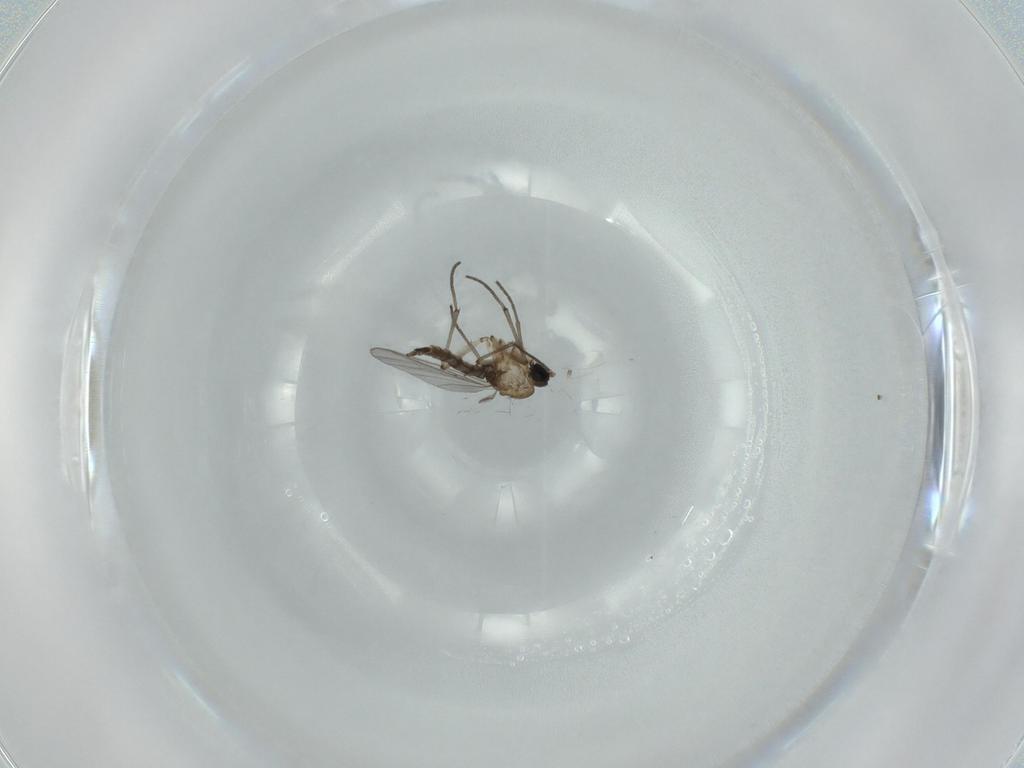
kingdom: Animalia
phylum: Arthropoda
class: Insecta
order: Diptera
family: Sciaridae
